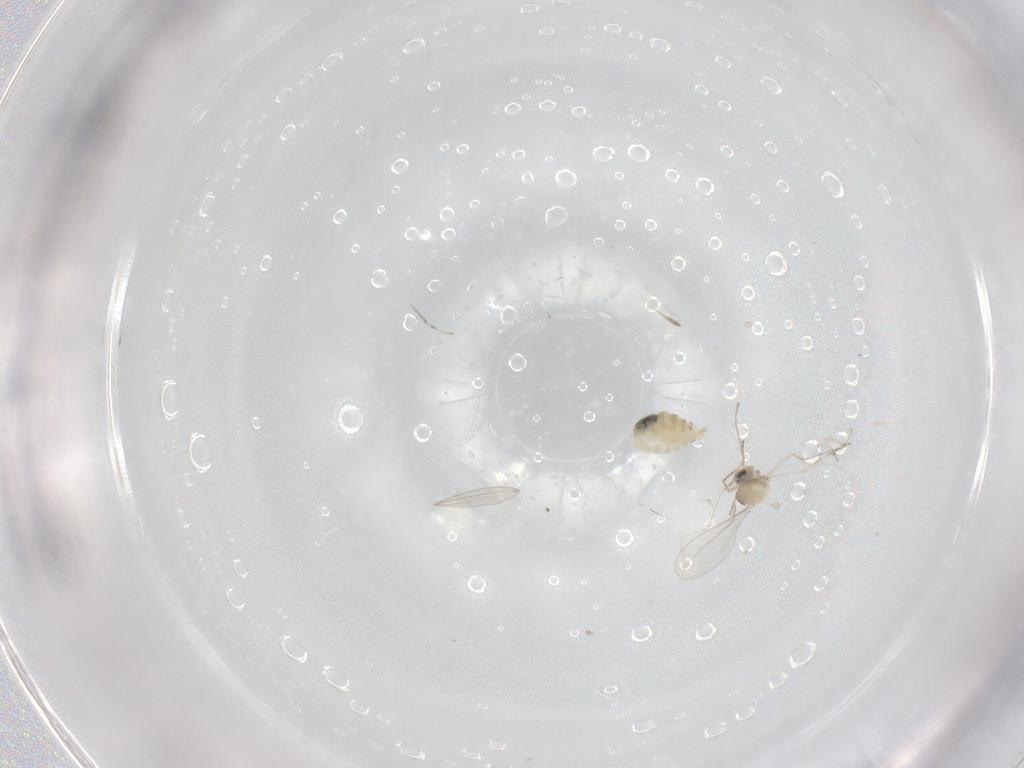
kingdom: Animalia
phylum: Arthropoda
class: Insecta
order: Diptera
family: Cecidomyiidae
